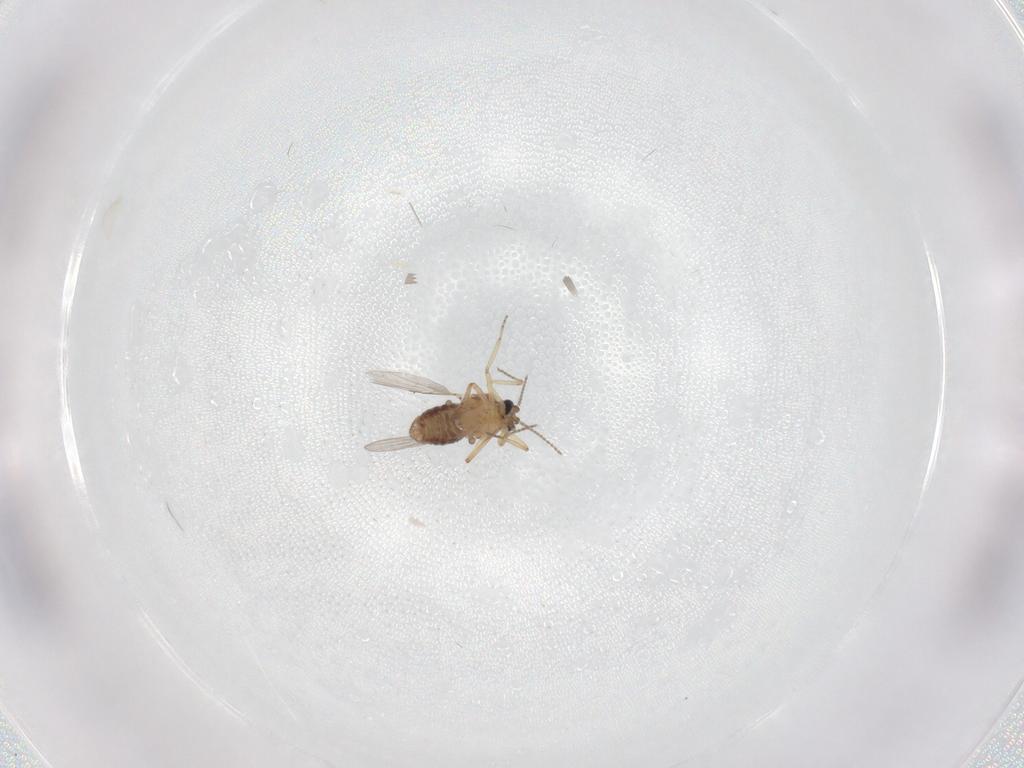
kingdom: Animalia
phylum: Arthropoda
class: Insecta
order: Diptera
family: Ceratopogonidae
